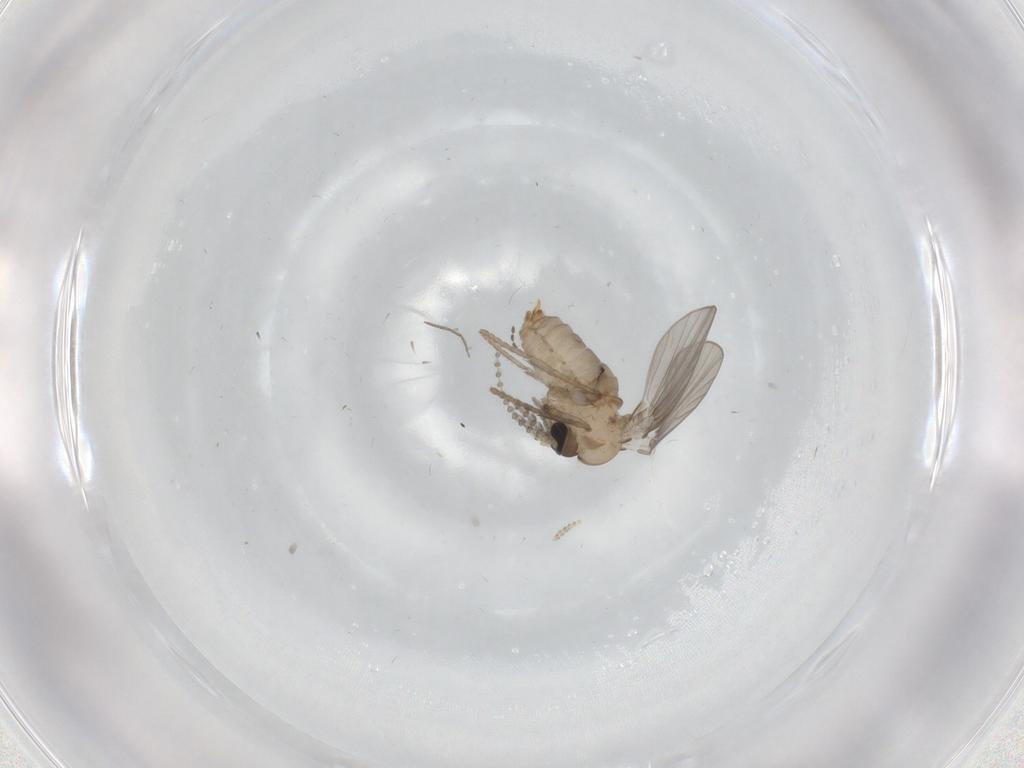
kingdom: Animalia
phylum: Arthropoda
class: Insecta
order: Diptera
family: Psychodidae
